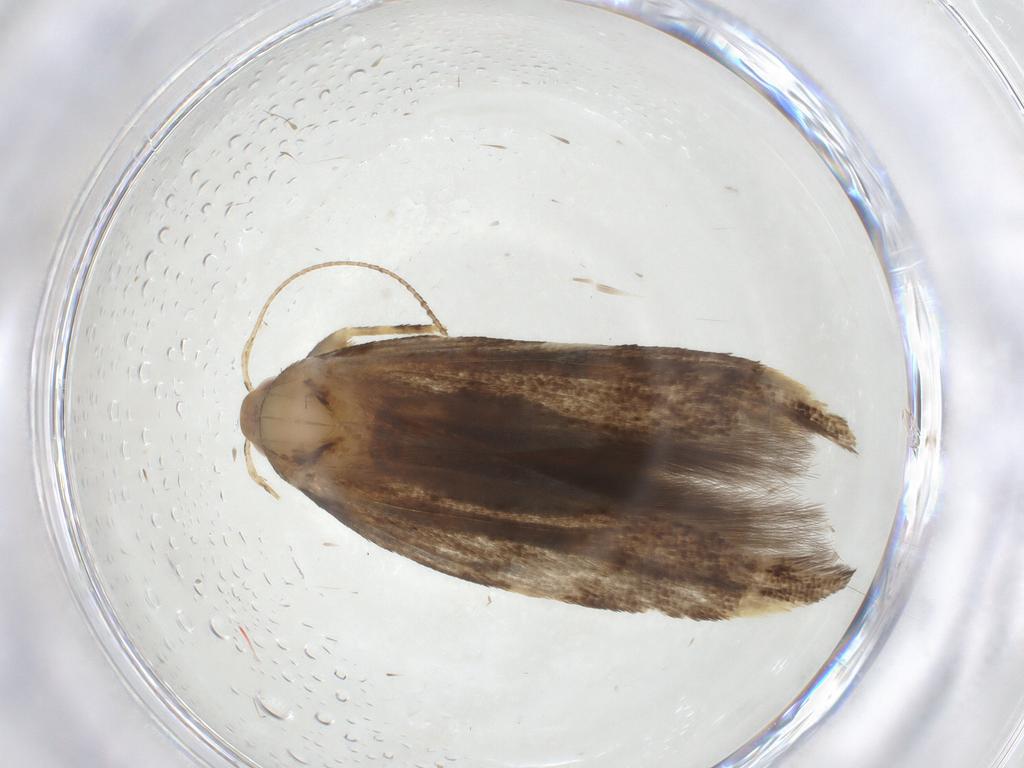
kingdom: Animalia
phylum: Arthropoda
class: Insecta
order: Lepidoptera
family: Cosmopterigidae
